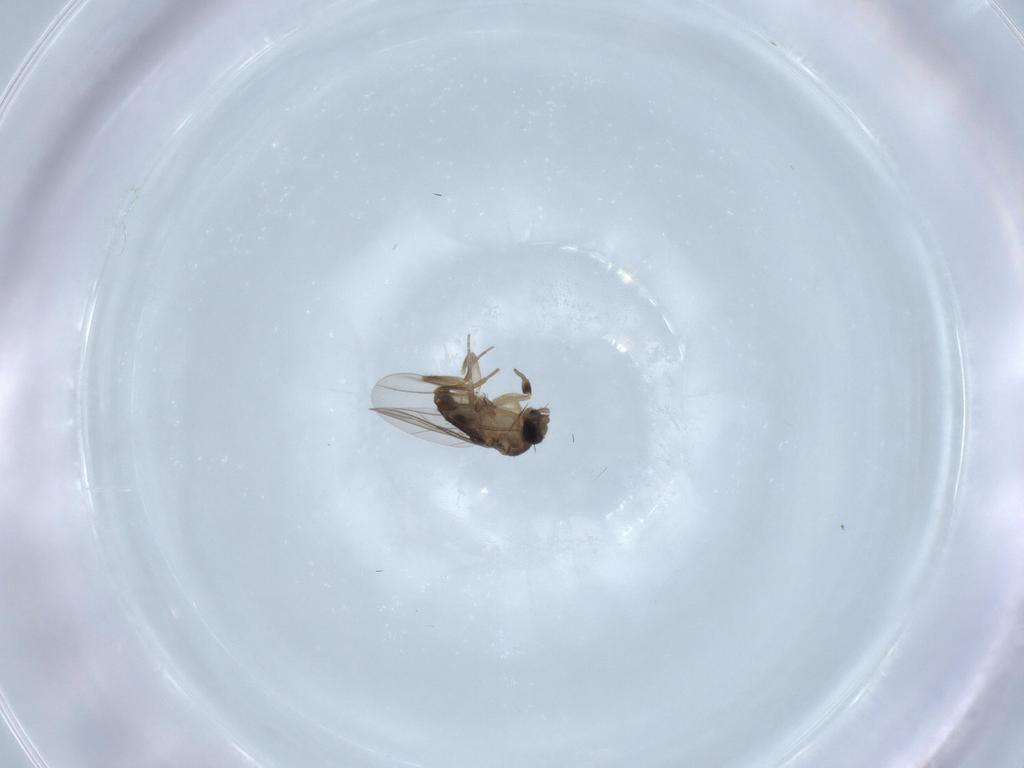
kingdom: Animalia
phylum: Arthropoda
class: Insecta
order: Diptera
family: Phoridae
